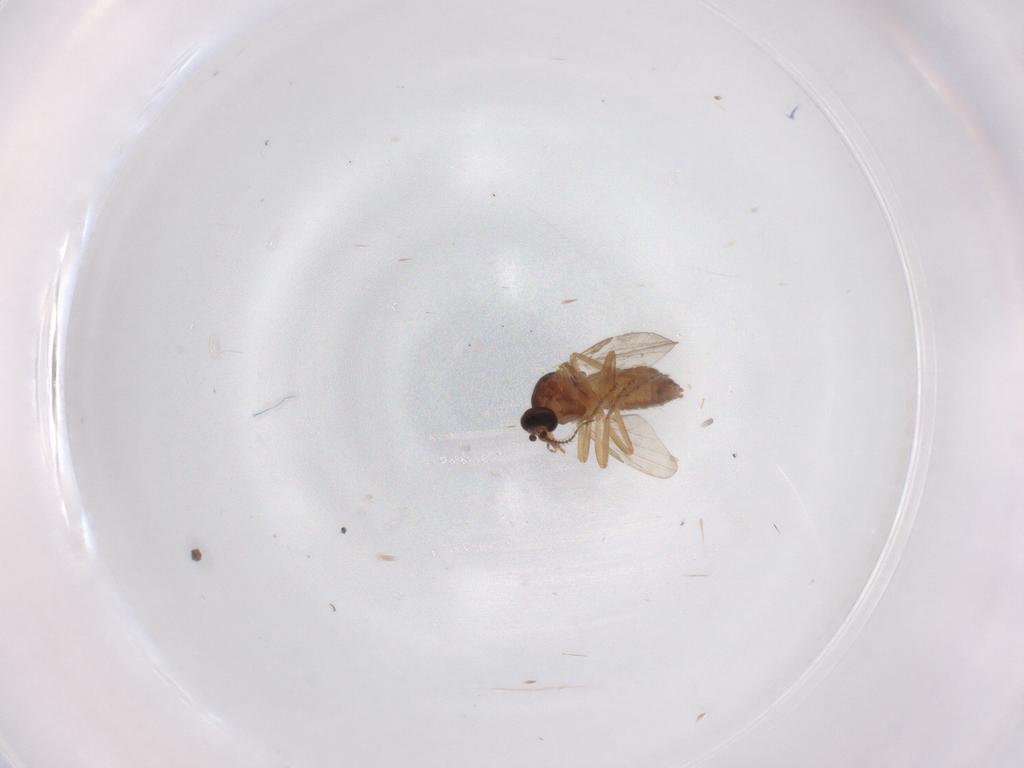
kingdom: Animalia
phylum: Arthropoda
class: Insecta
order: Diptera
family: Ceratopogonidae
